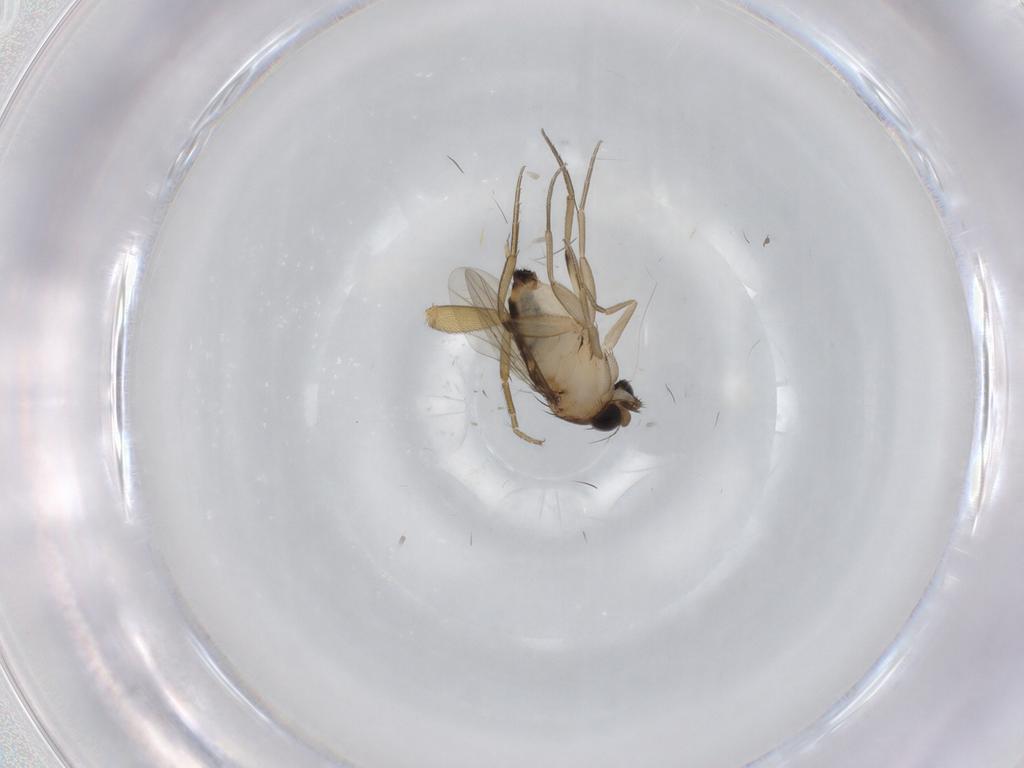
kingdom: Animalia
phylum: Arthropoda
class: Insecta
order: Diptera
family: Phoridae
